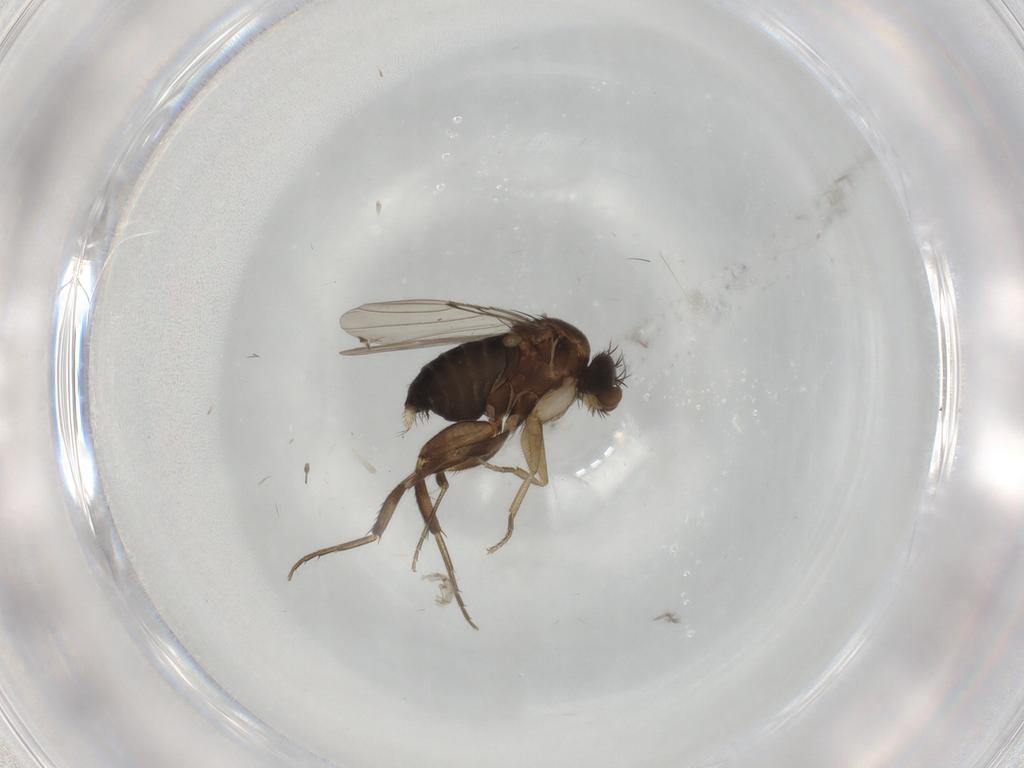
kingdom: Animalia
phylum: Arthropoda
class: Insecta
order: Diptera
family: Phoridae
